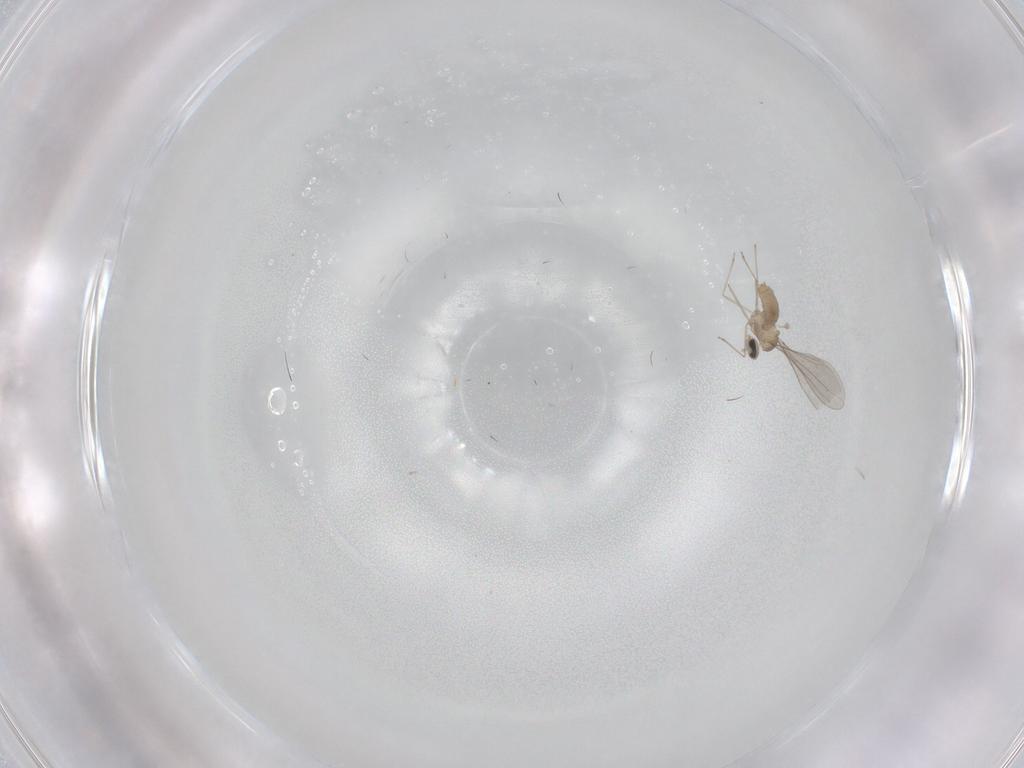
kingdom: Animalia
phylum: Arthropoda
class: Insecta
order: Diptera
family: Cecidomyiidae
